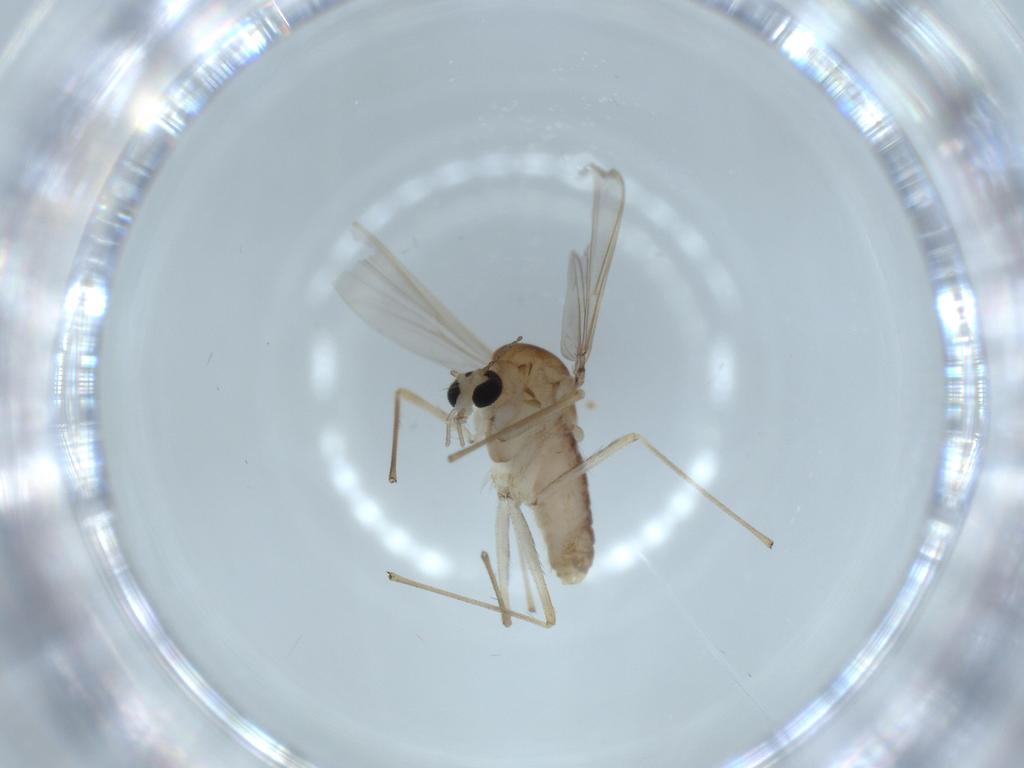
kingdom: Animalia
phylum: Arthropoda
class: Insecta
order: Diptera
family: Chironomidae
